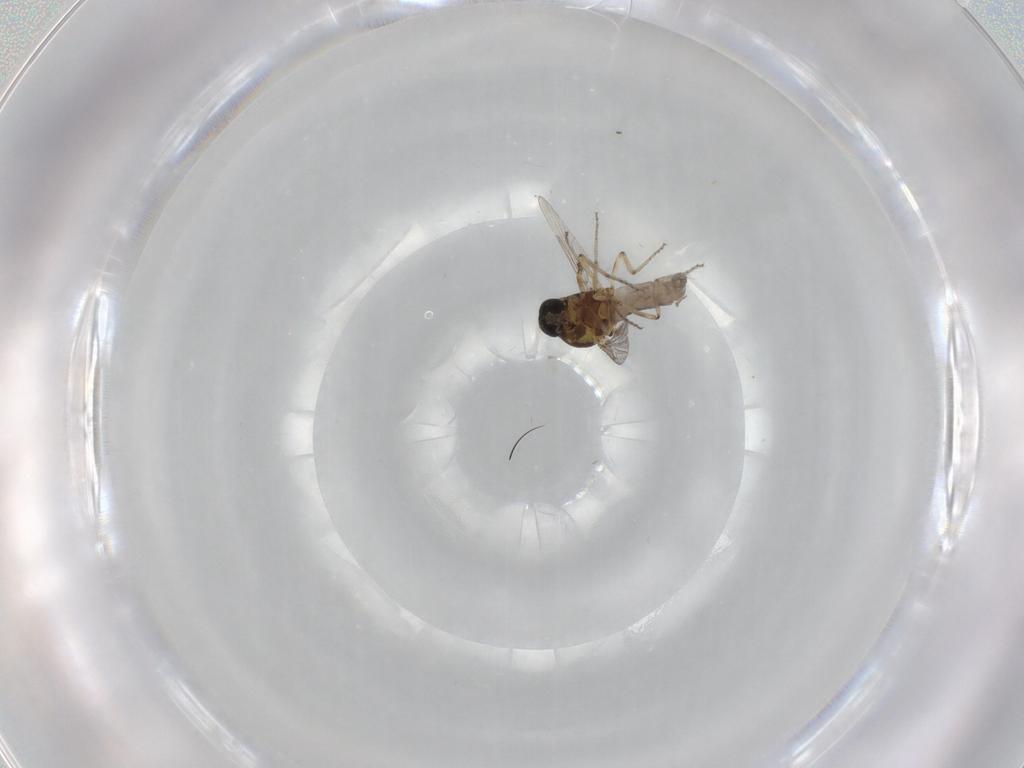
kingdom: Animalia
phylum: Arthropoda
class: Insecta
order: Diptera
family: Ceratopogonidae
